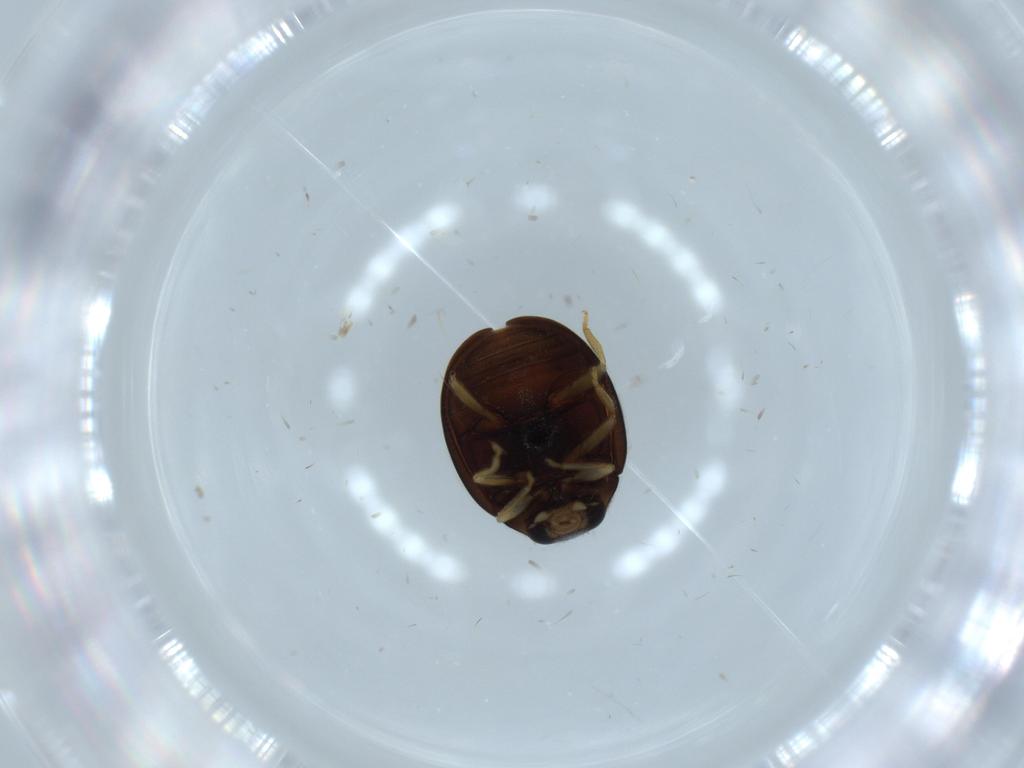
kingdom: Animalia
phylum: Arthropoda
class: Insecta
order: Coleoptera
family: Coccinellidae
